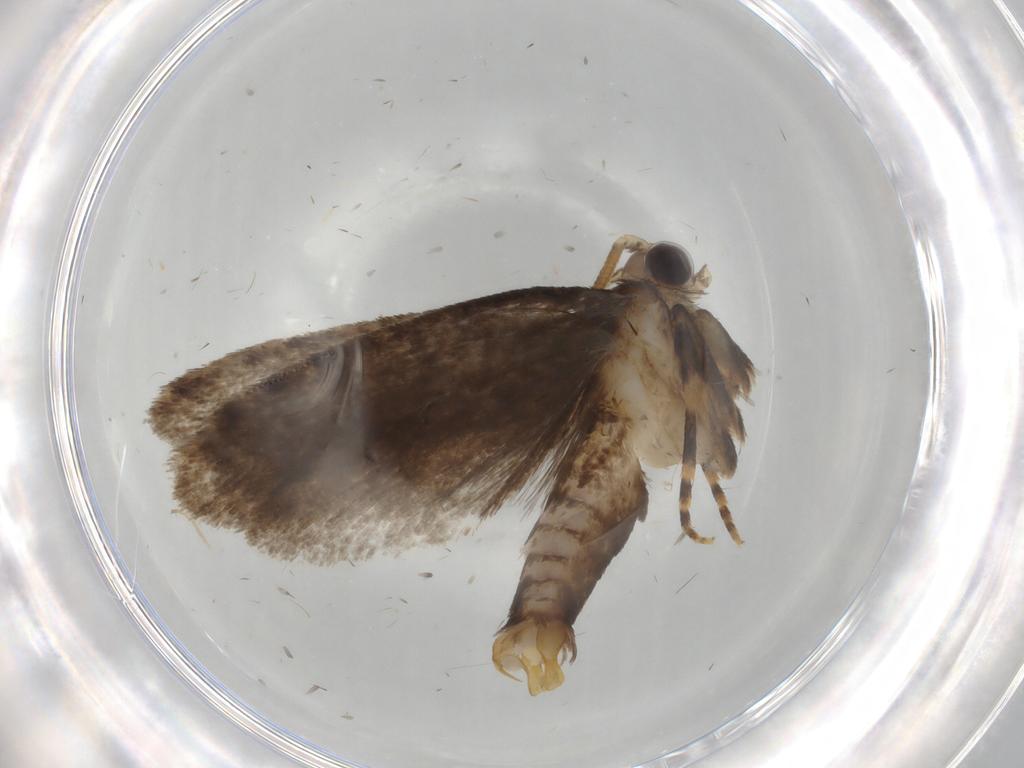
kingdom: Animalia
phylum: Arthropoda
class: Insecta
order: Lepidoptera
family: Tineidae
